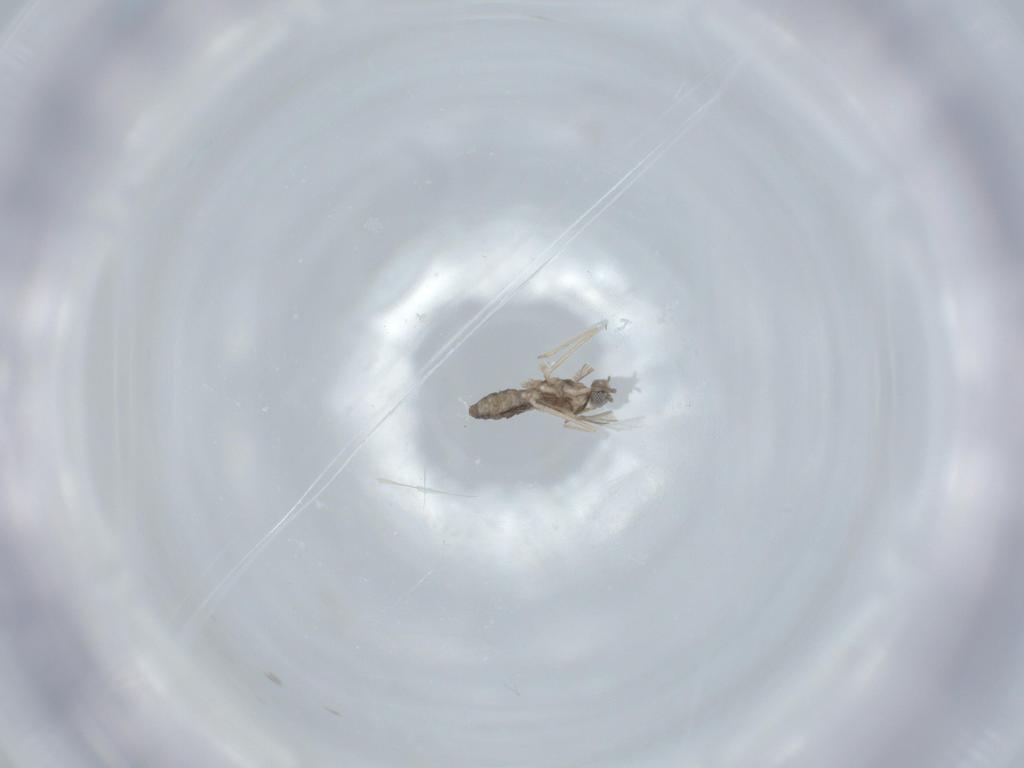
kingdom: Animalia
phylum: Arthropoda
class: Insecta
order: Diptera
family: Cecidomyiidae
